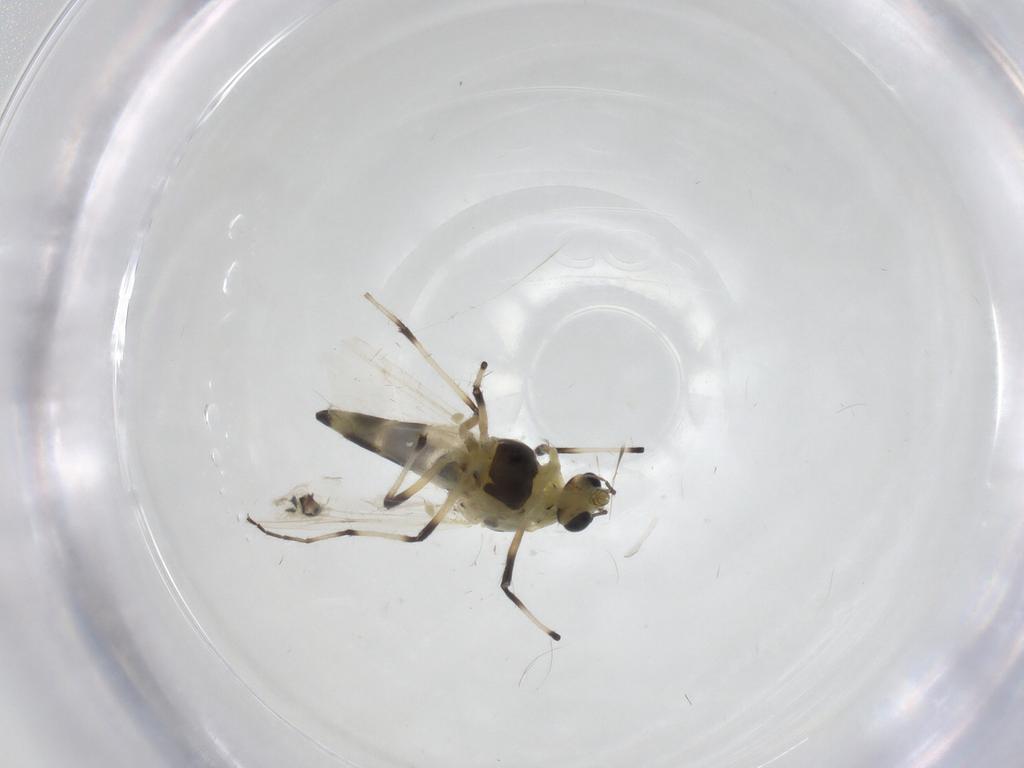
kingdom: Animalia
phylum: Arthropoda
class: Insecta
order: Diptera
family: Chironomidae
